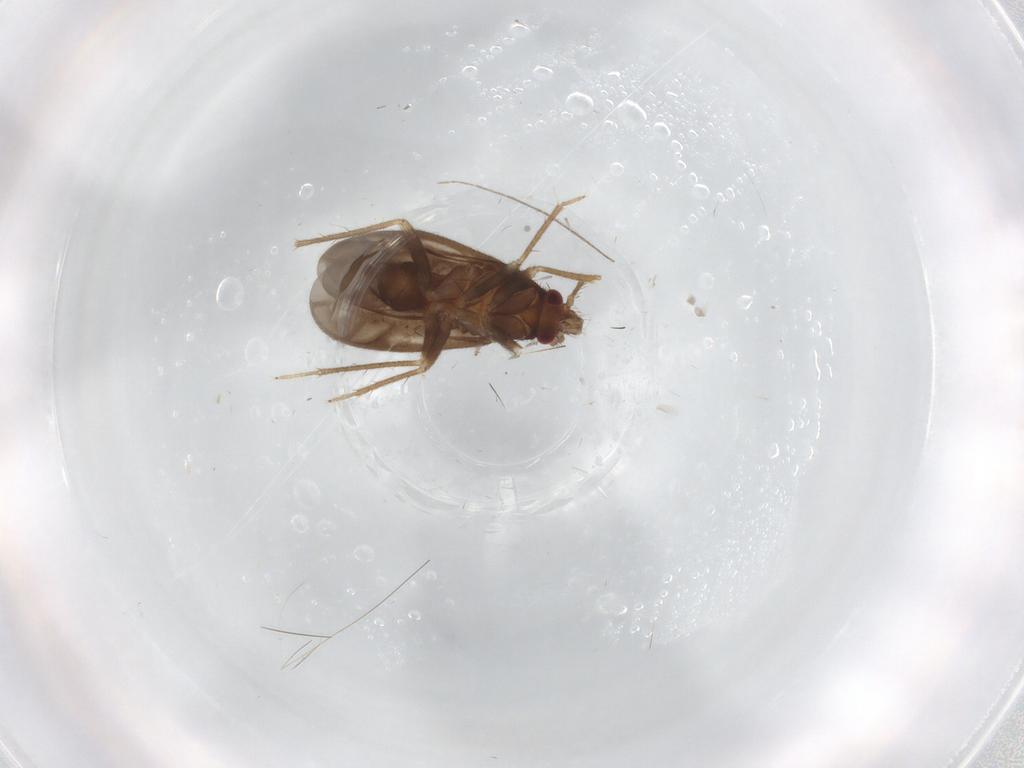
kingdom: Animalia
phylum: Arthropoda
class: Insecta
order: Hemiptera
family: Ceratocombidae
